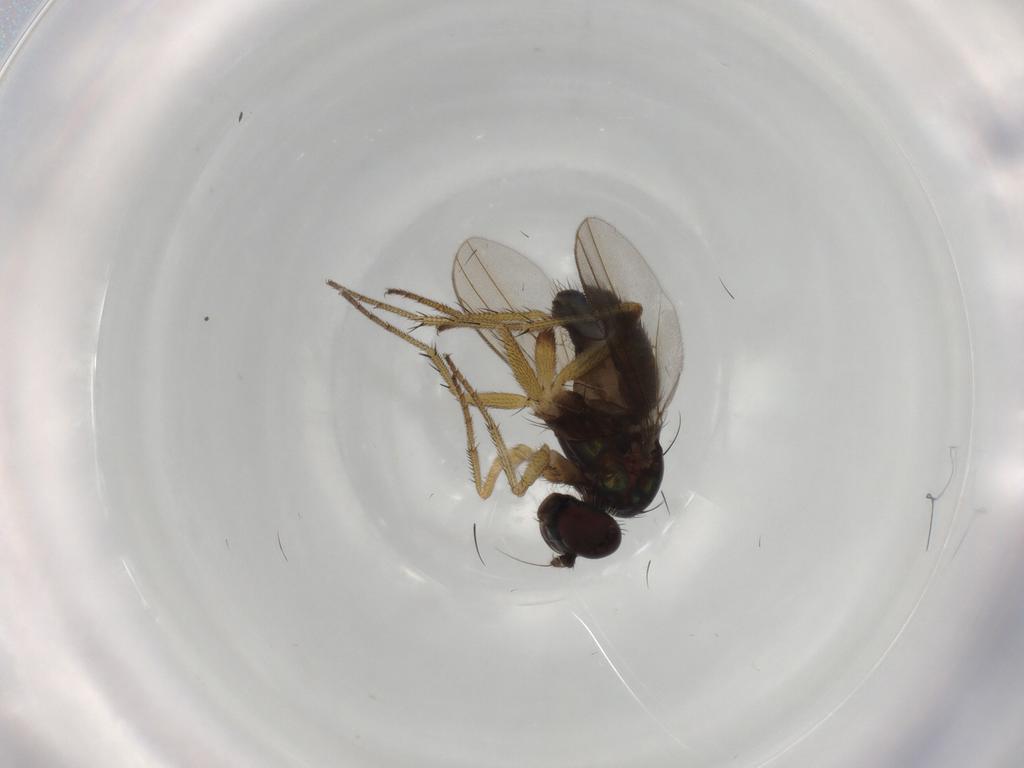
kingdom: Animalia
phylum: Arthropoda
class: Insecta
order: Diptera
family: Dolichopodidae
